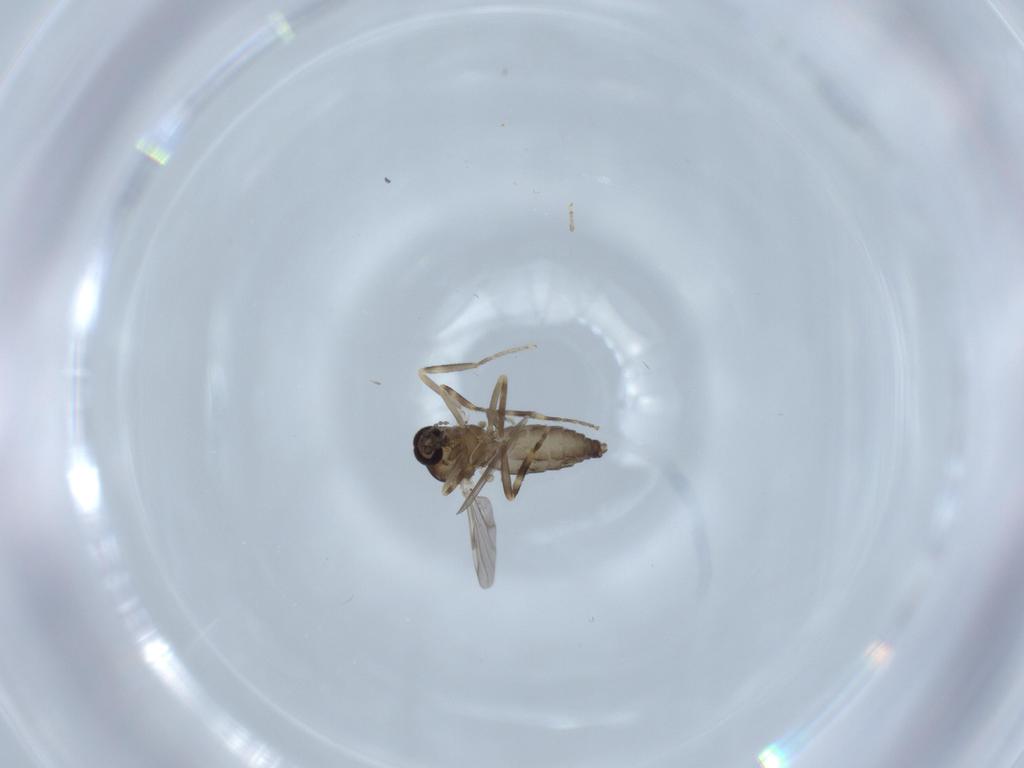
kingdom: Animalia
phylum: Arthropoda
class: Insecta
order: Diptera
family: Ceratopogonidae
